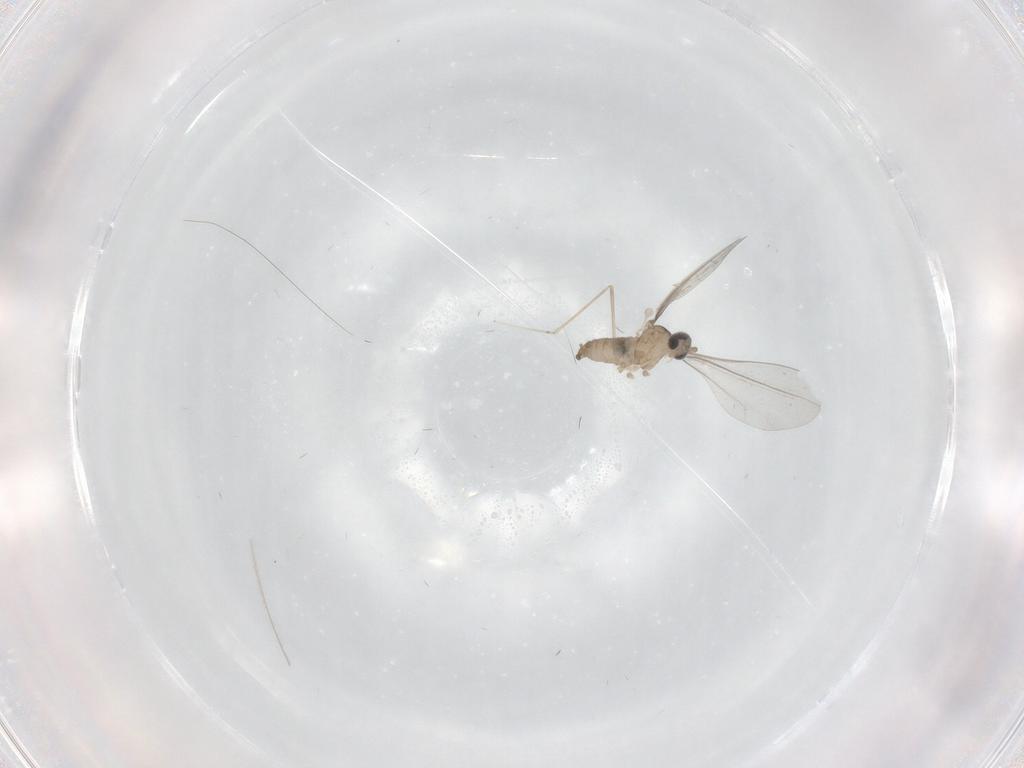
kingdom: Animalia
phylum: Arthropoda
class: Insecta
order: Diptera
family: Cecidomyiidae
